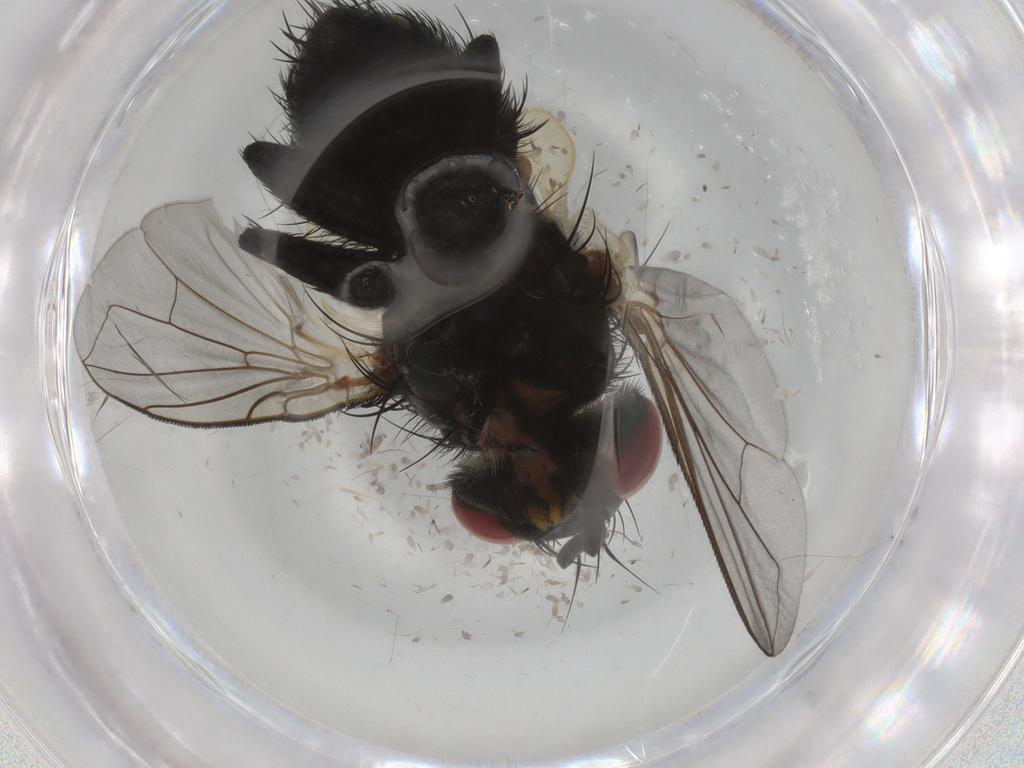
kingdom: Animalia
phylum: Arthropoda
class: Insecta
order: Diptera
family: Tachinidae
